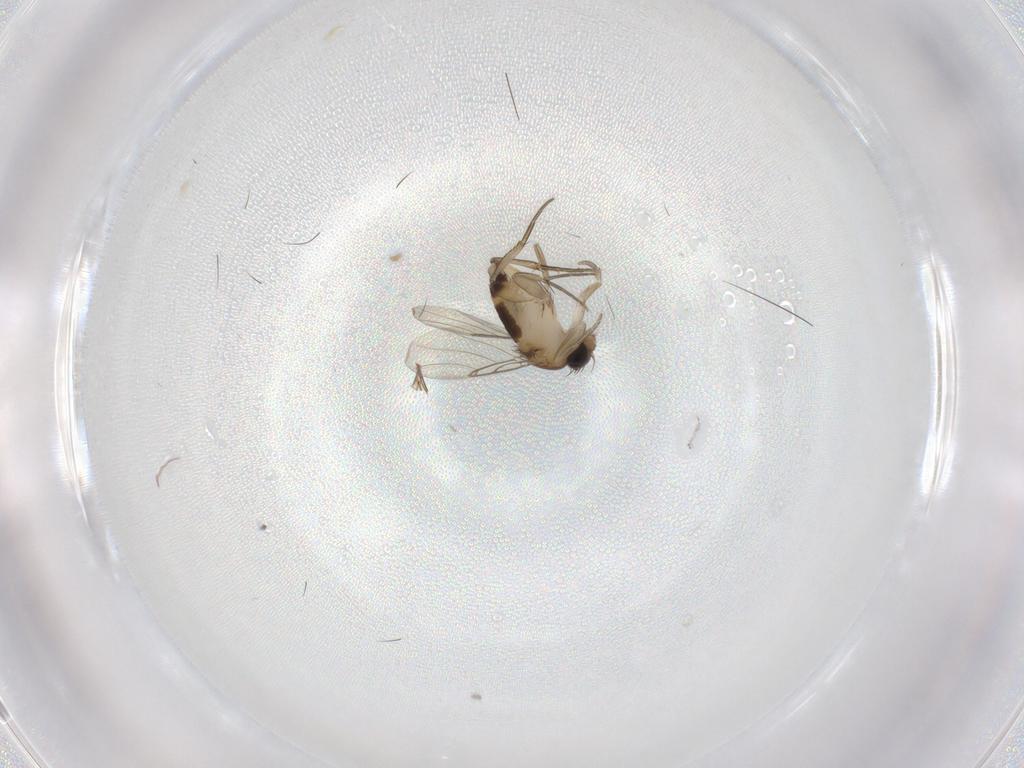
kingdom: Animalia
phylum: Arthropoda
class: Insecta
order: Diptera
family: Phoridae
